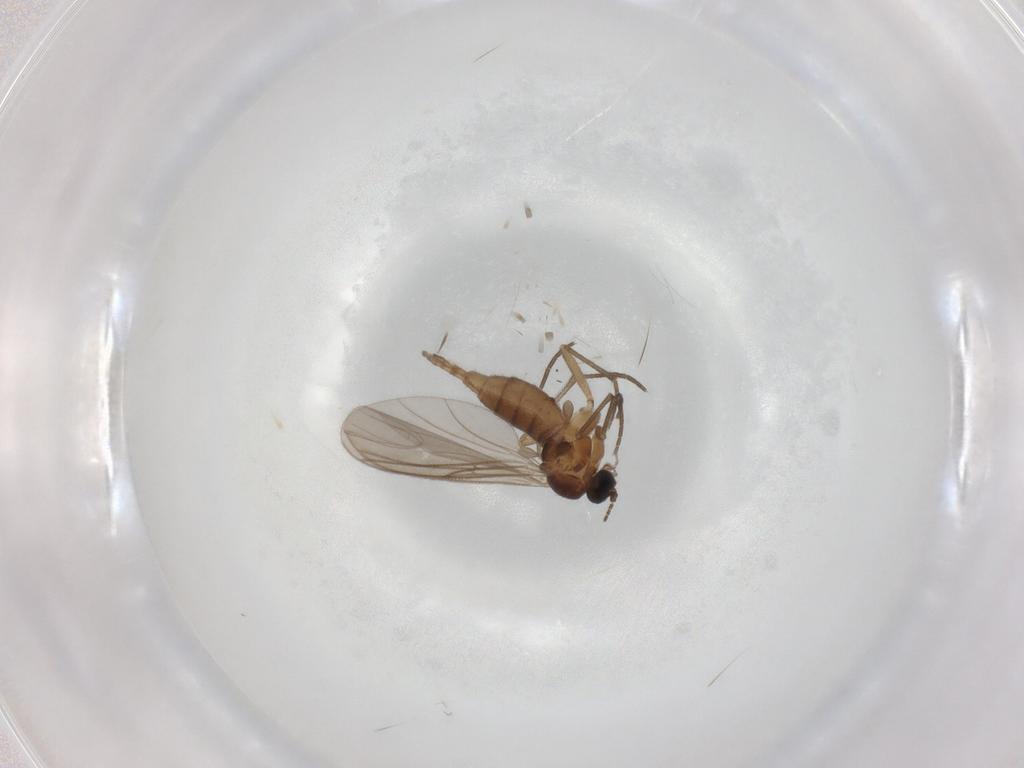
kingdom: Animalia
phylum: Arthropoda
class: Insecta
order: Diptera
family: Sciaridae
